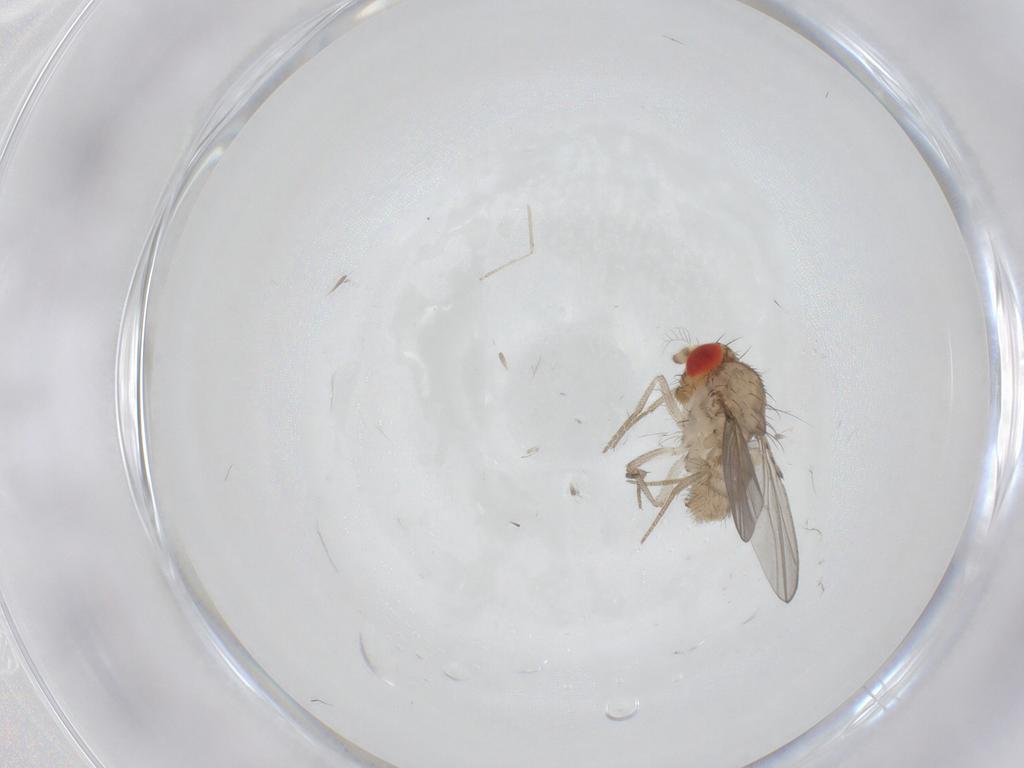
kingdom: Animalia
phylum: Arthropoda
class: Insecta
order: Diptera
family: Drosophilidae
